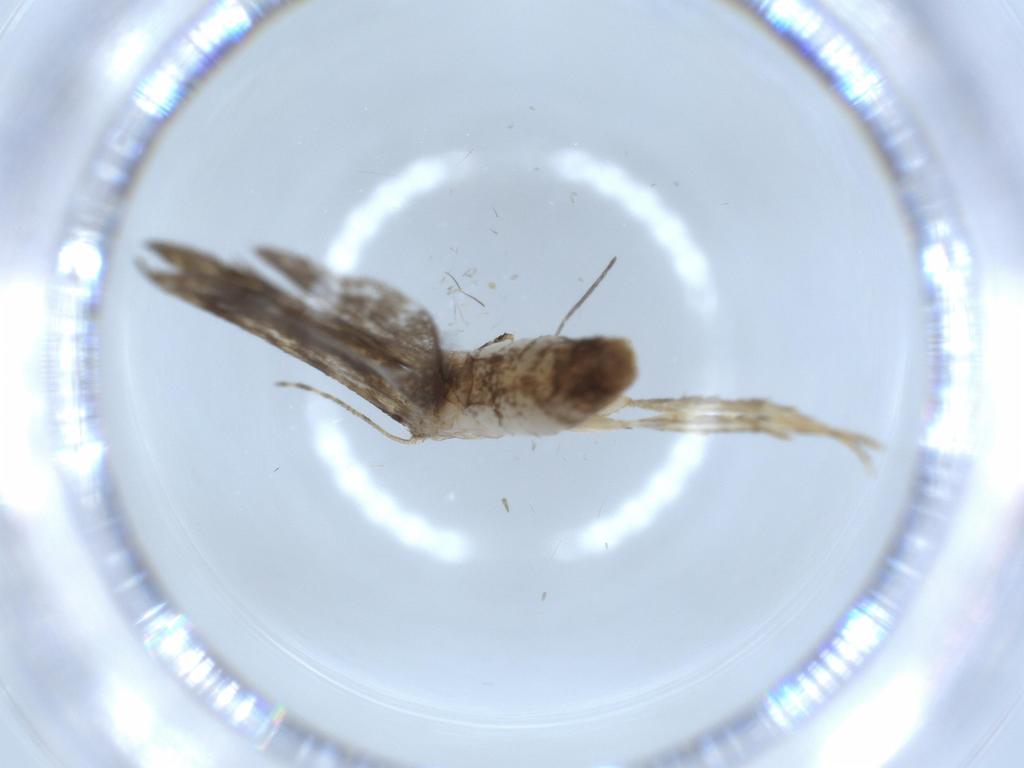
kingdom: Animalia
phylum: Arthropoda
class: Insecta
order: Lepidoptera
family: Tineidae
